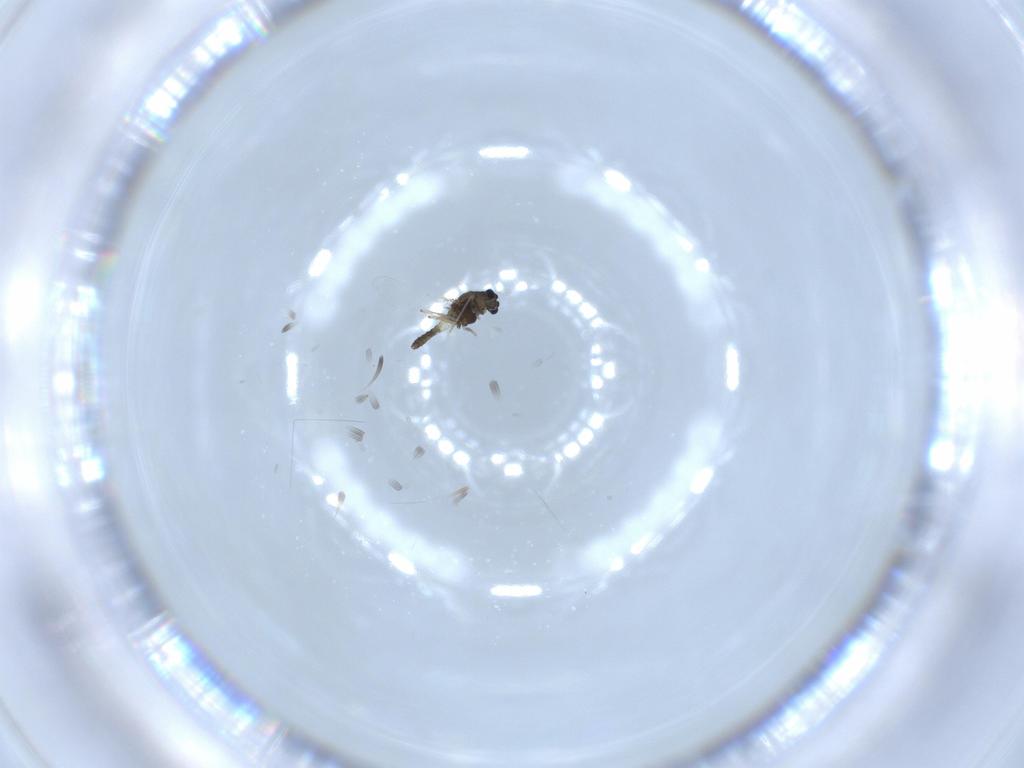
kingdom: Animalia
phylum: Arthropoda
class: Insecta
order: Diptera
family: Chironomidae
